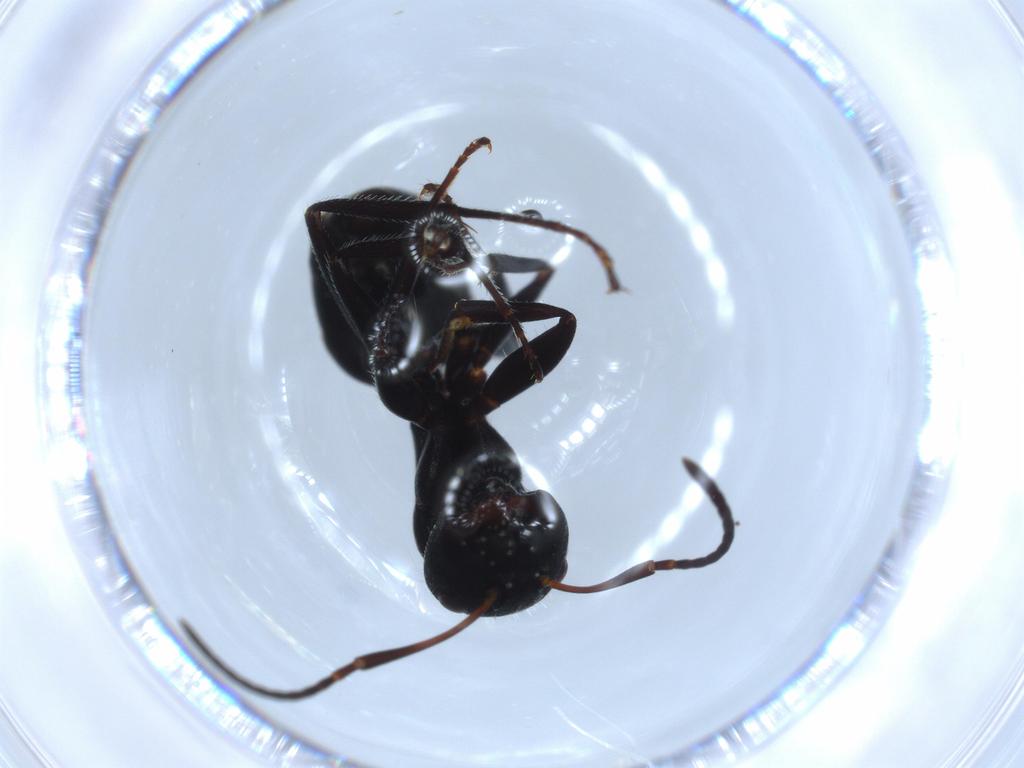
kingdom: Animalia
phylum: Arthropoda
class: Insecta
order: Hymenoptera
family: Formicidae
